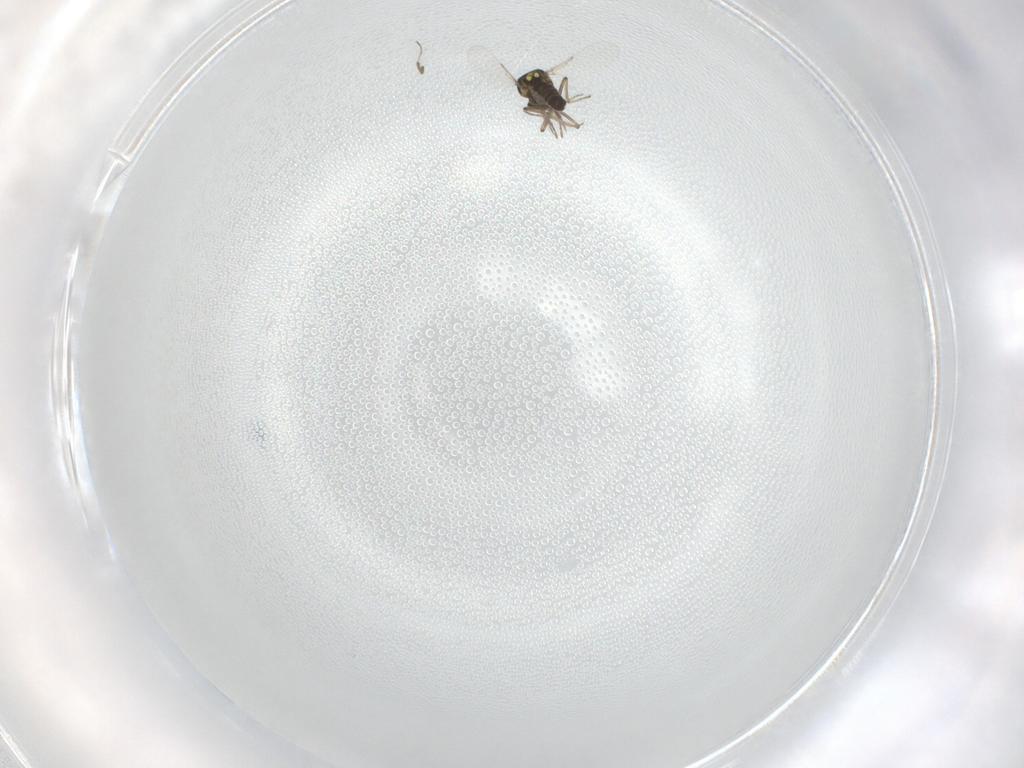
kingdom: Animalia
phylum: Arthropoda
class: Insecta
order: Diptera
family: Ceratopogonidae
